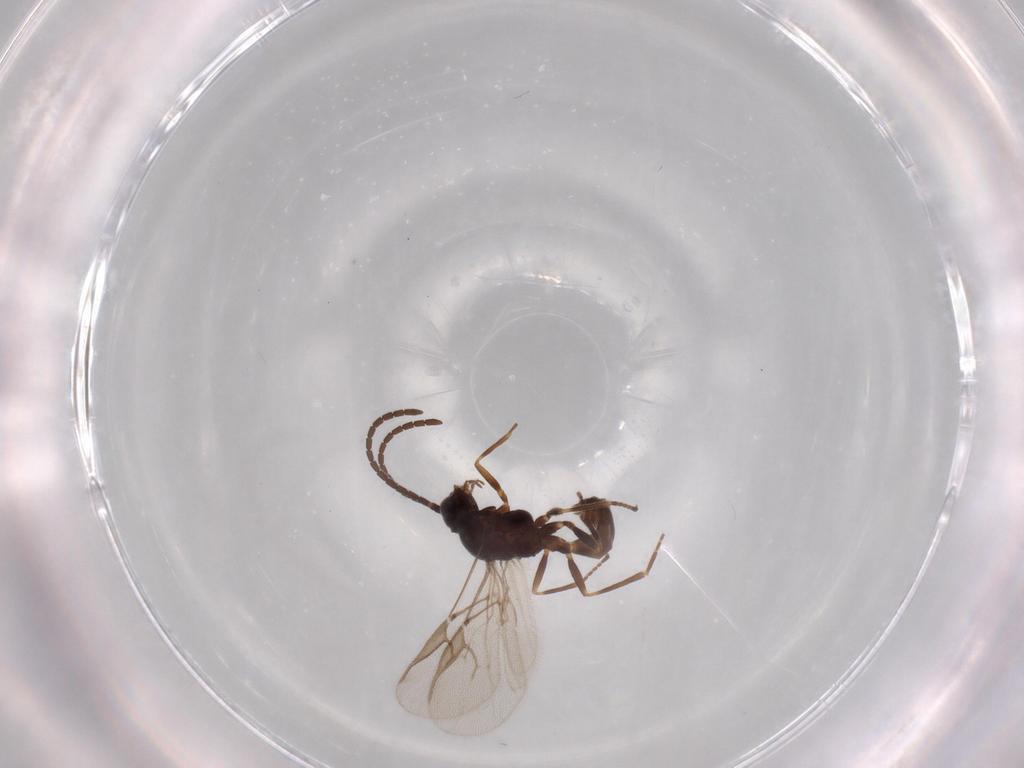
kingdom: Animalia
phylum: Arthropoda
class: Insecta
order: Hymenoptera
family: Braconidae
